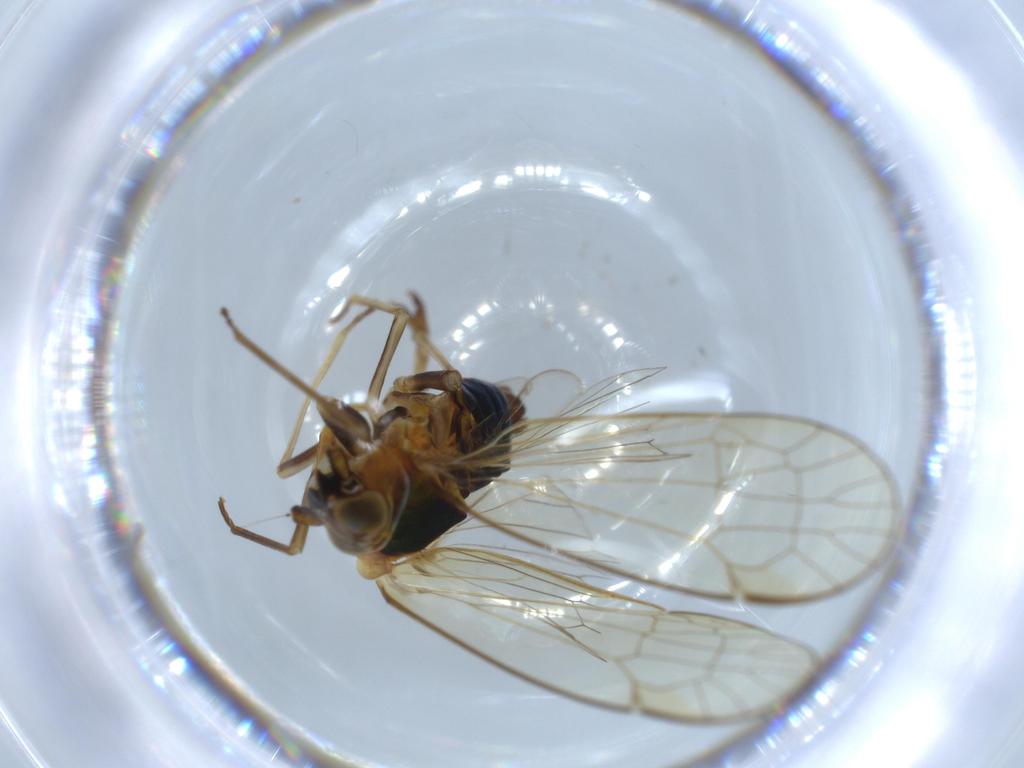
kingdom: Animalia
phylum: Arthropoda
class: Insecta
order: Hemiptera
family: Kinnaridae
